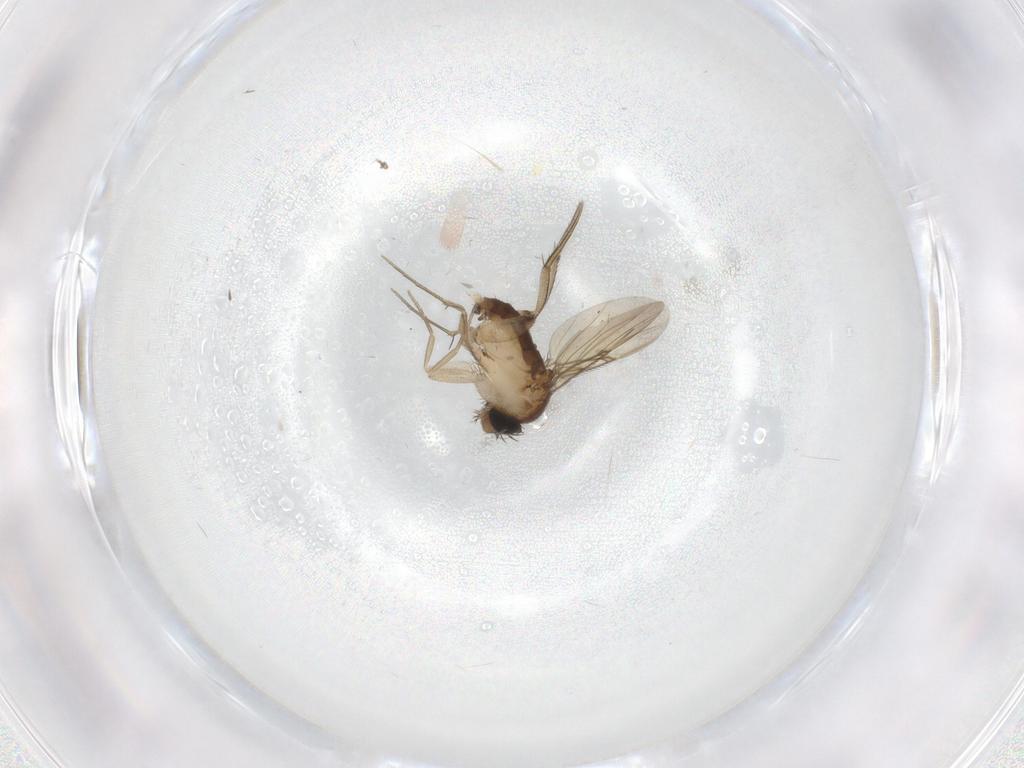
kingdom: Animalia
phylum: Arthropoda
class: Insecta
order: Diptera
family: Phoridae
